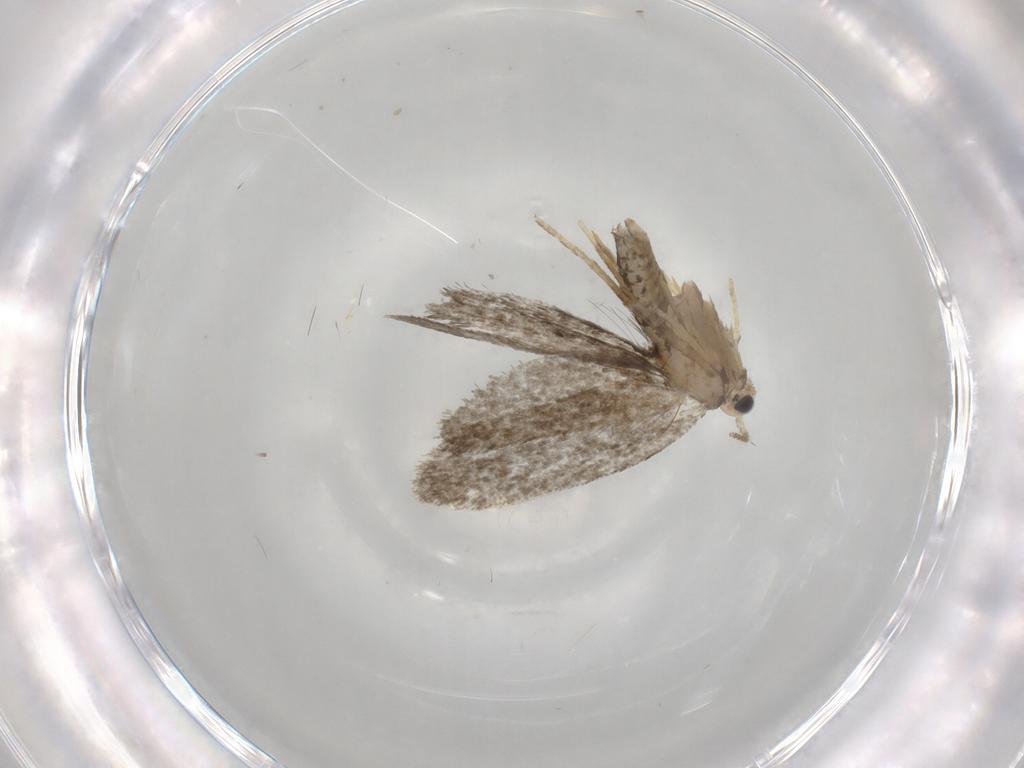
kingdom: Animalia
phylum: Arthropoda
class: Insecta
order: Lepidoptera
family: Psychidae
